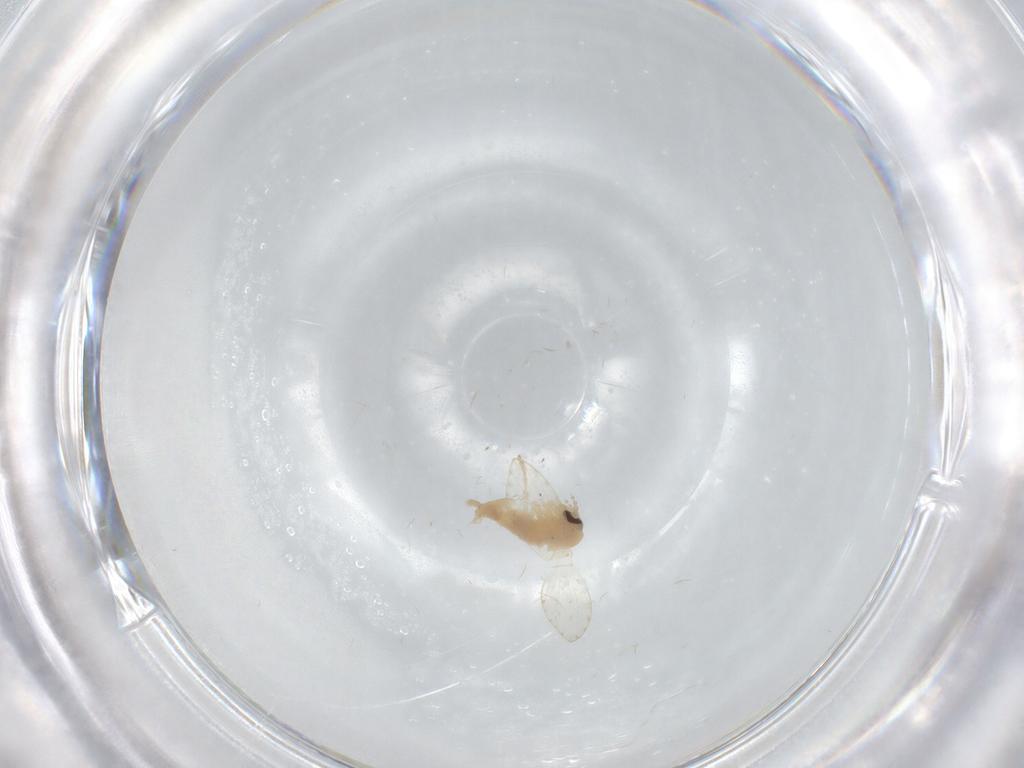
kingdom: Animalia
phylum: Arthropoda
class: Insecta
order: Diptera
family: Psychodidae
